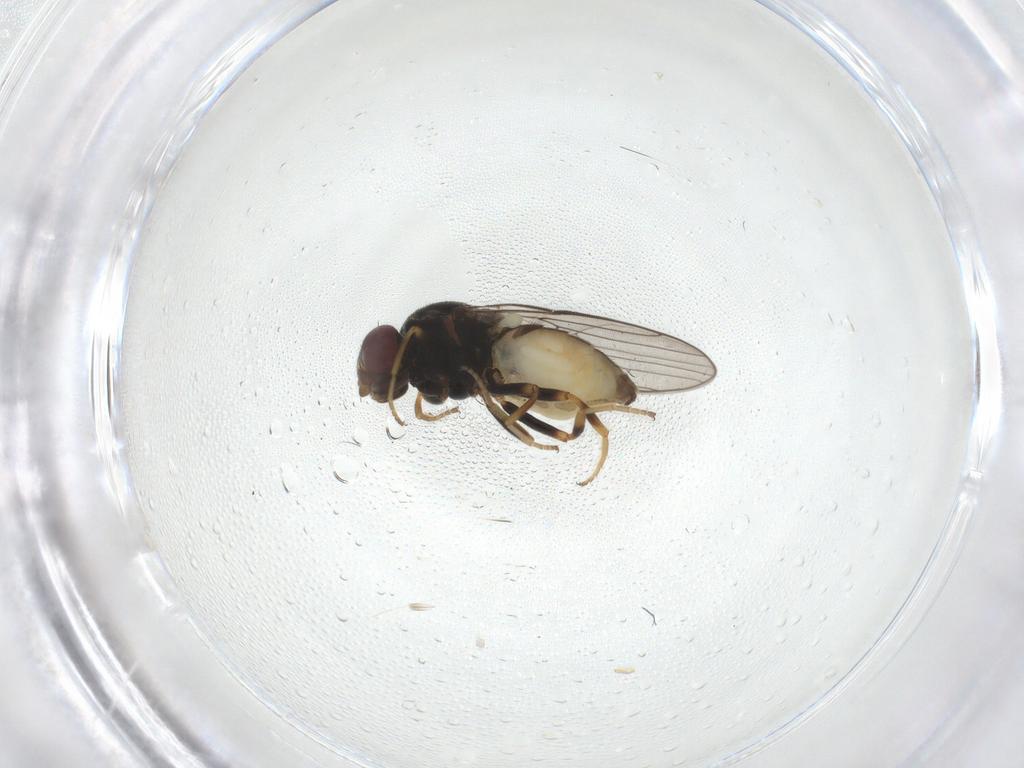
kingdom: Animalia
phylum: Arthropoda
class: Insecta
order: Diptera
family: Chloropidae
